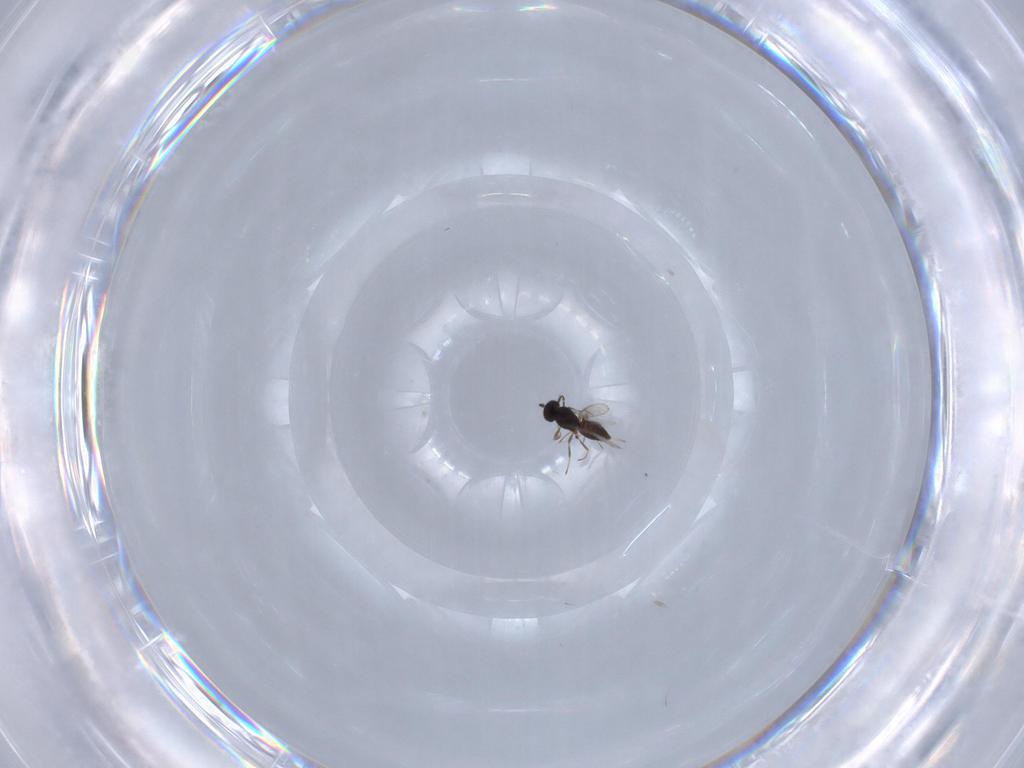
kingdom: Animalia
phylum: Arthropoda
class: Insecta
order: Hymenoptera
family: Scelionidae
